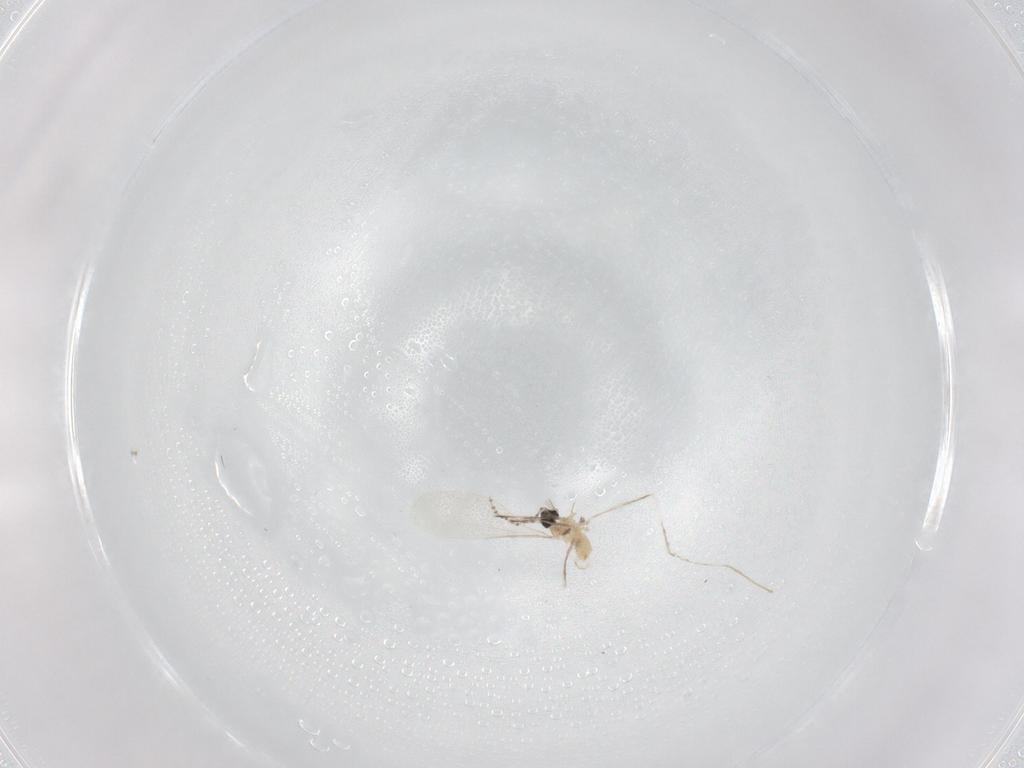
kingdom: Animalia
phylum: Arthropoda
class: Insecta
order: Diptera
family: Cecidomyiidae
